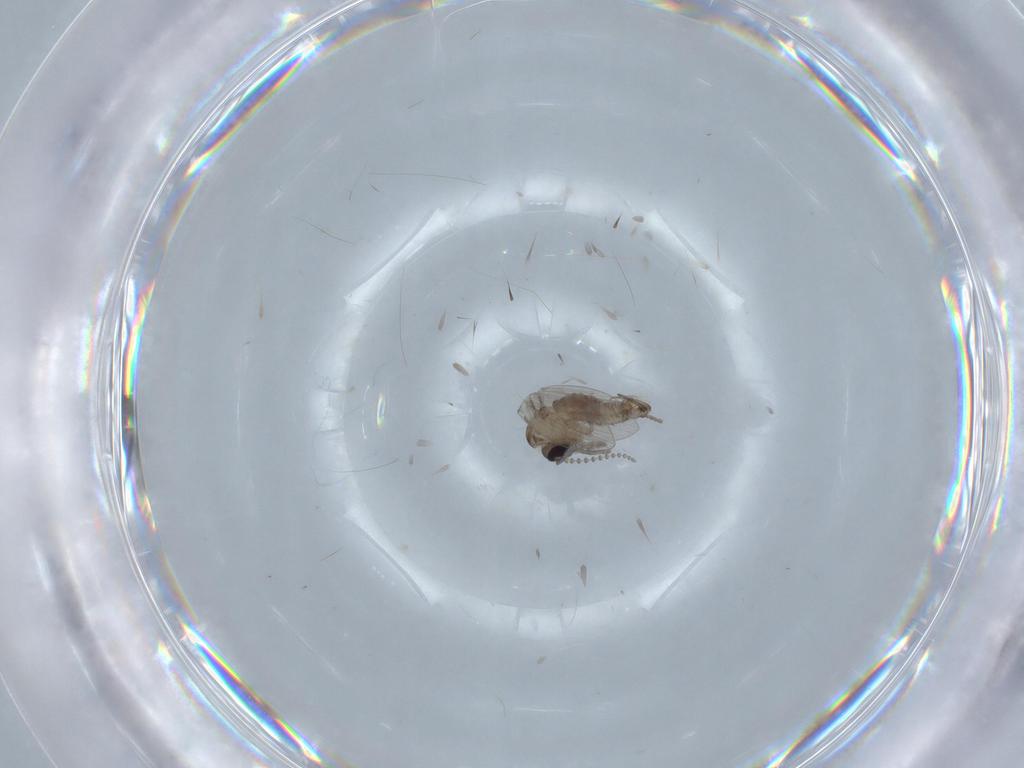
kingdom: Animalia
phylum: Arthropoda
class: Insecta
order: Diptera
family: Psychodidae
